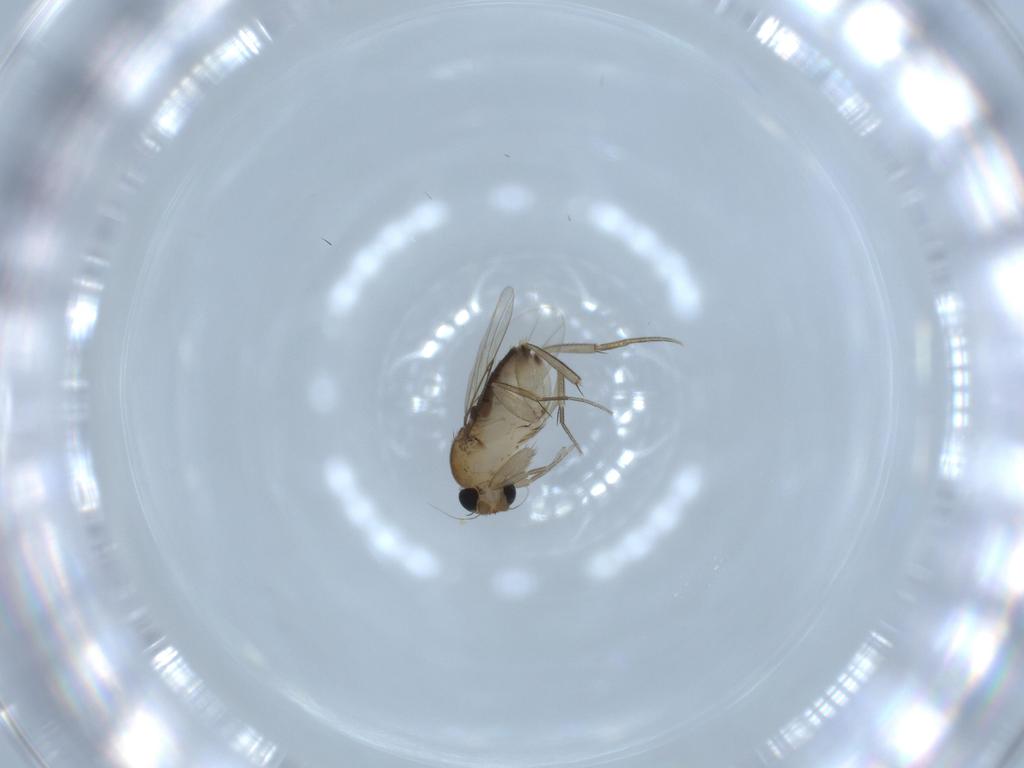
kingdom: Animalia
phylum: Arthropoda
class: Insecta
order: Diptera
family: Phoridae
